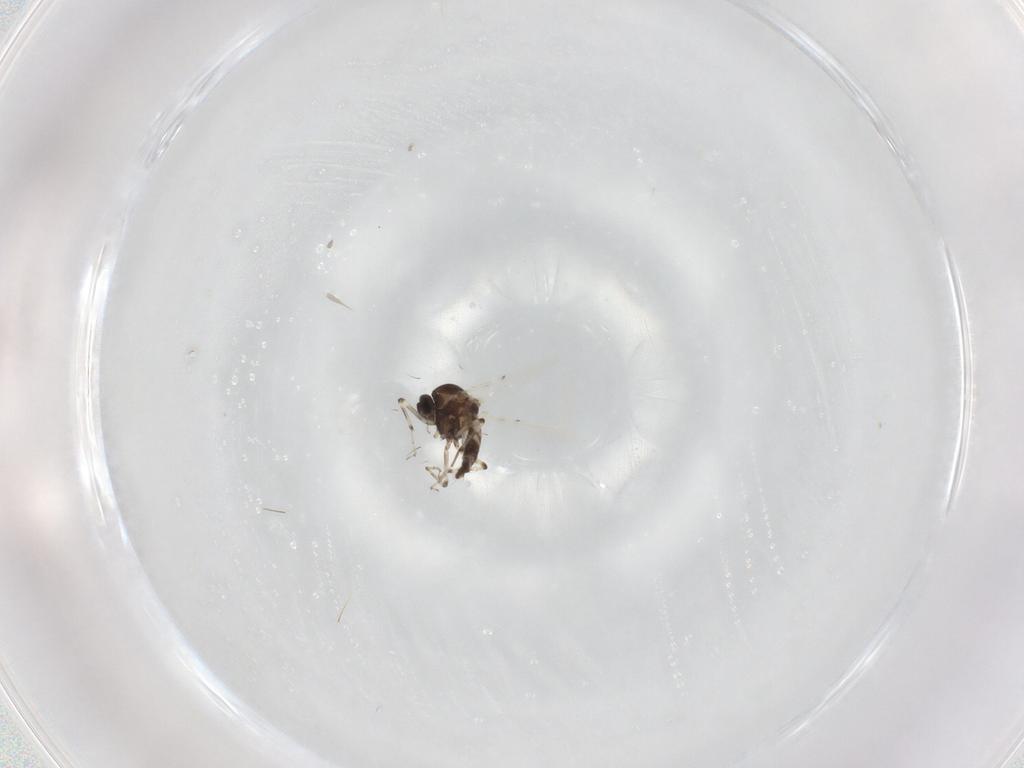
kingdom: Animalia
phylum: Arthropoda
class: Insecta
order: Diptera
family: Ceratopogonidae
